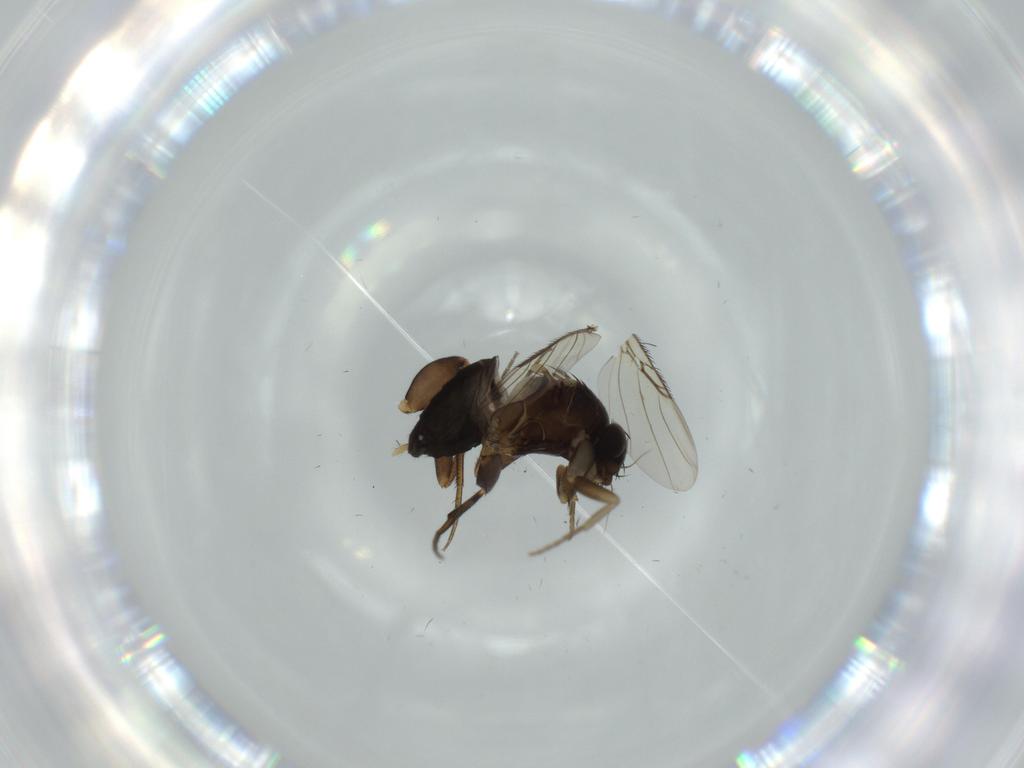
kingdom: Animalia
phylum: Arthropoda
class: Insecta
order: Diptera
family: Phoridae
